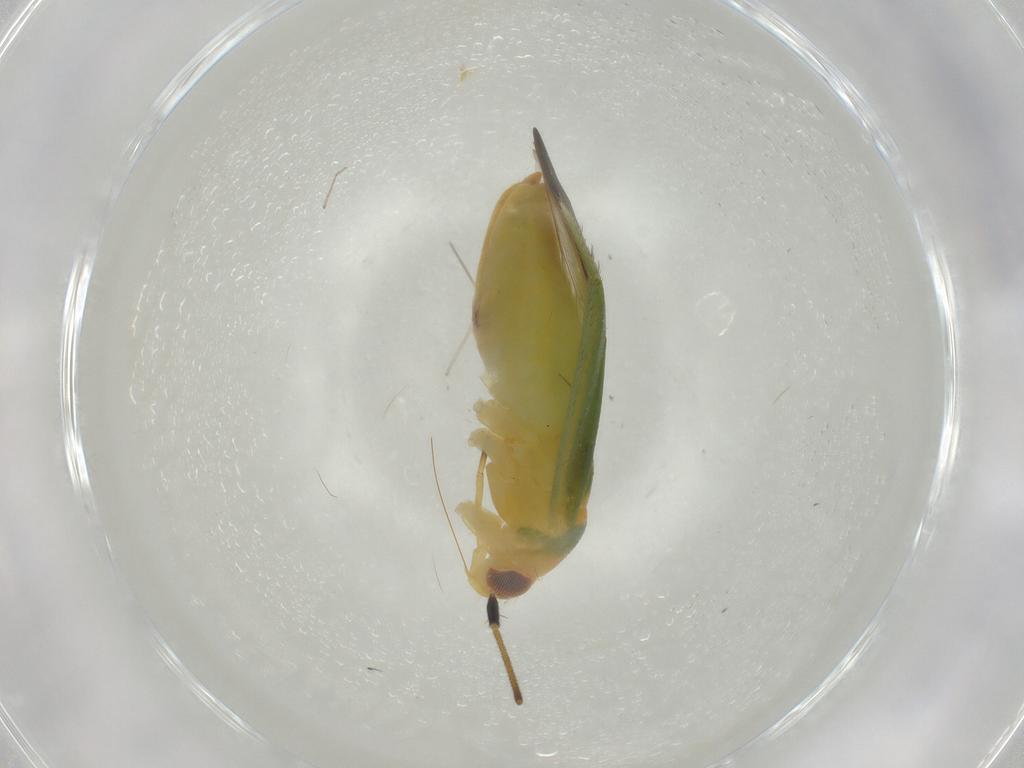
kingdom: Animalia
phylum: Arthropoda
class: Insecta
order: Hemiptera
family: Miridae
